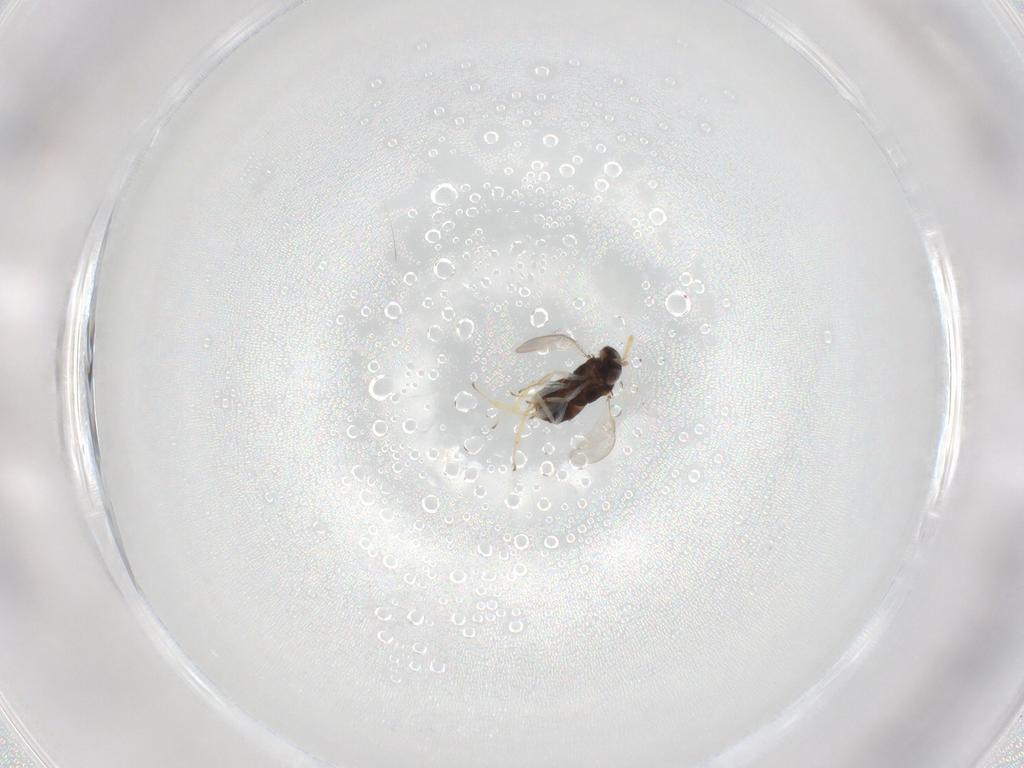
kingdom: Animalia
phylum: Arthropoda
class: Insecta
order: Hymenoptera
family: Aphelinidae
